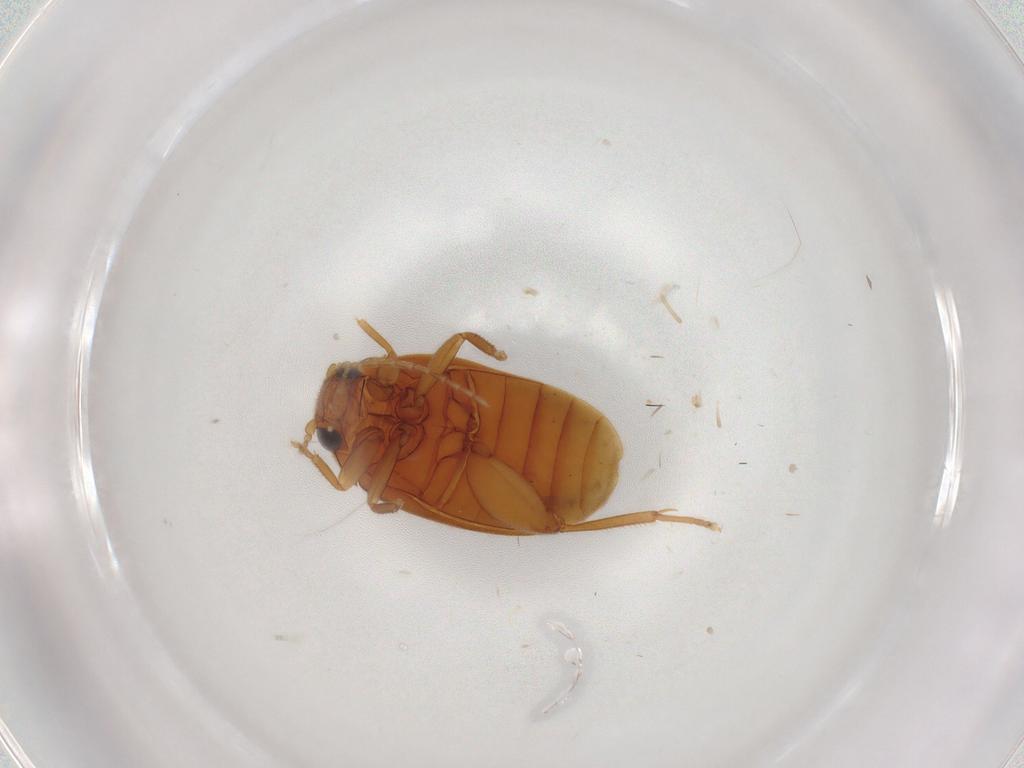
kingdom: Animalia
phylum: Arthropoda
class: Insecta
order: Coleoptera
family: Scirtidae
